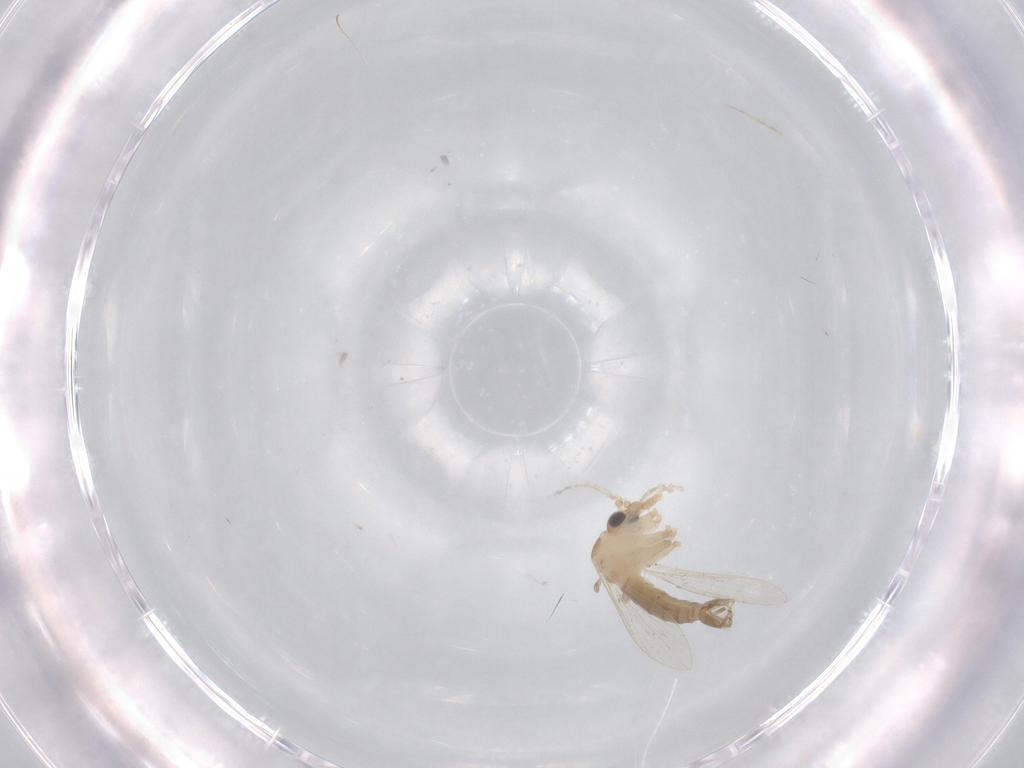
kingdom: Animalia
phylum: Arthropoda
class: Insecta
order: Diptera
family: Psychodidae
